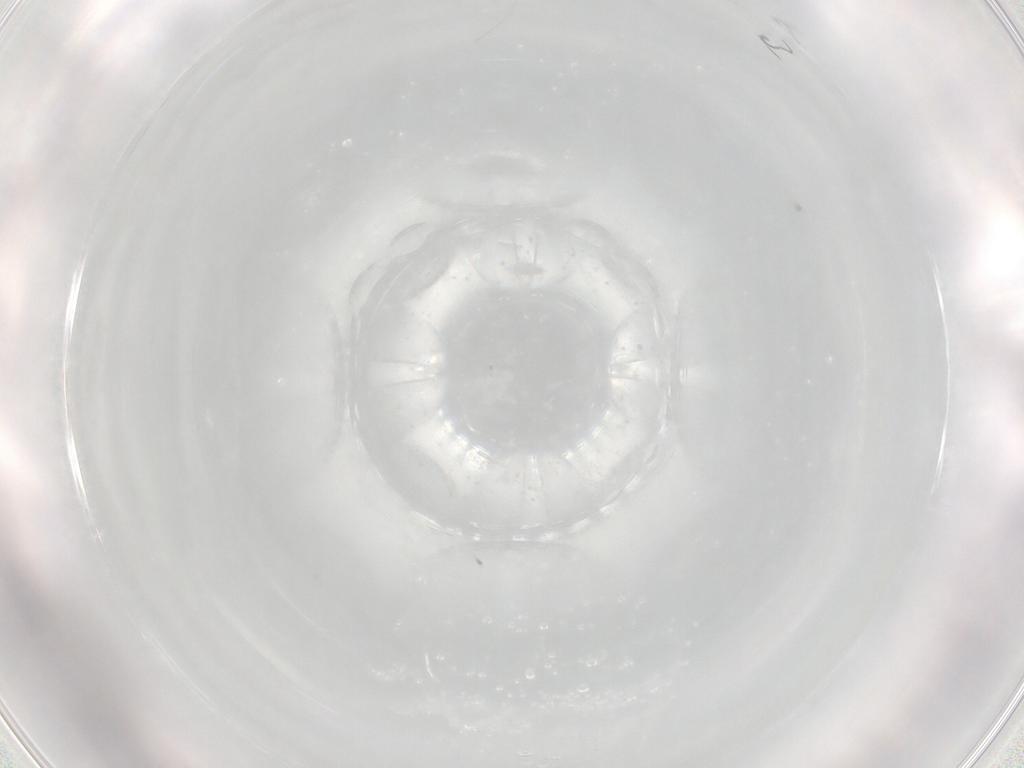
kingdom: Animalia
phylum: Arthropoda
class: Insecta
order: Diptera
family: Cecidomyiidae
